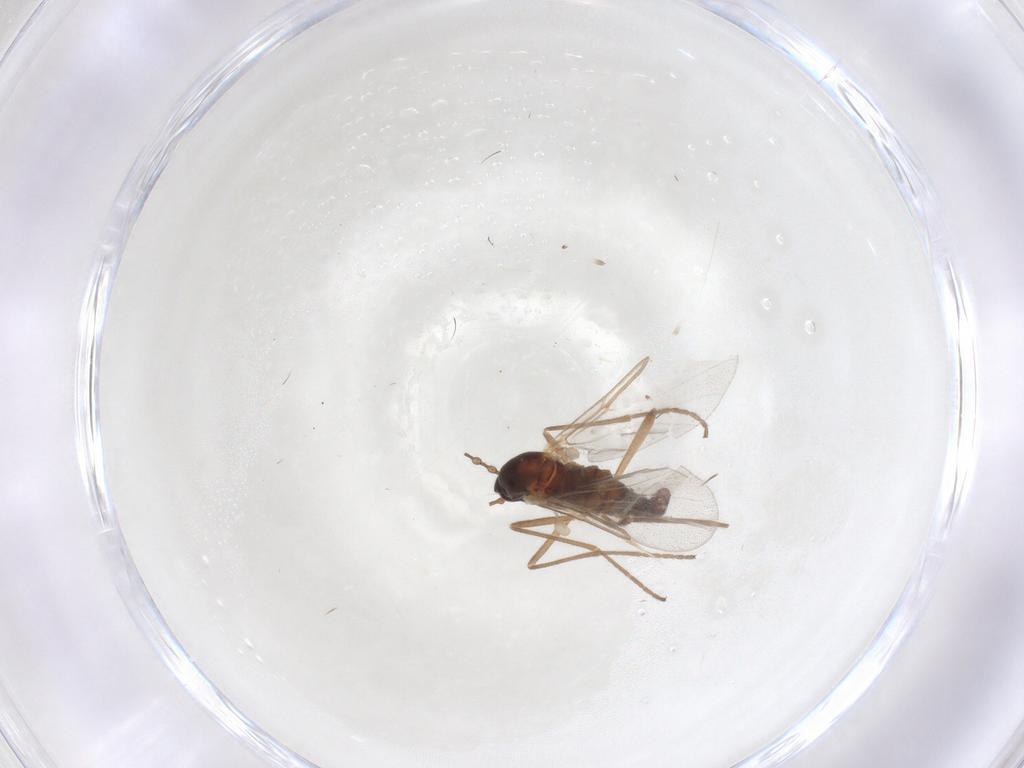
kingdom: Animalia
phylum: Arthropoda
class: Insecta
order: Diptera
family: Cecidomyiidae
